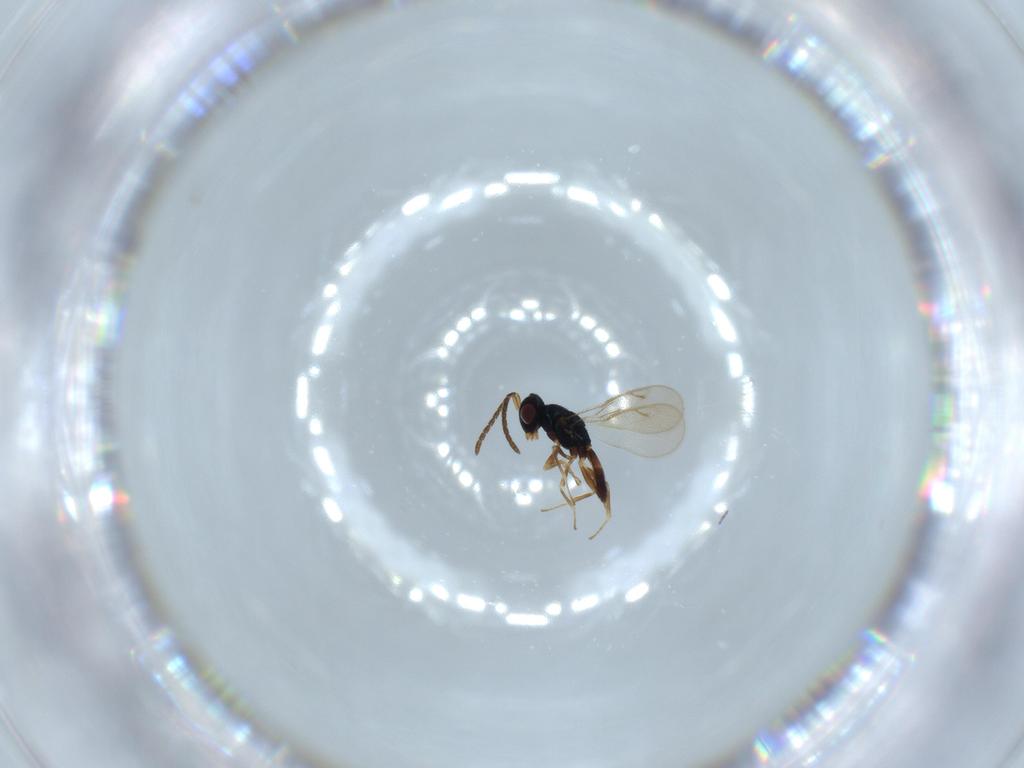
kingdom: Animalia
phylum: Arthropoda
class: Insecta
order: Hymenoptera
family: Pteromalidae
